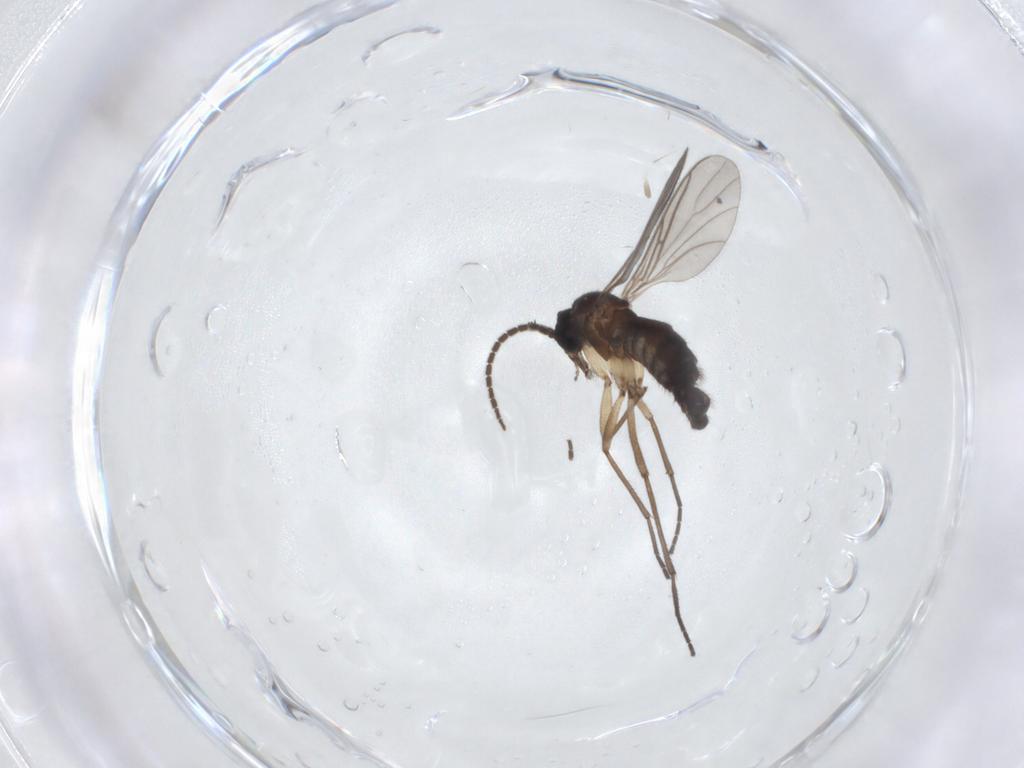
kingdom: Animalia
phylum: Arthropoda
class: Insecta
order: Diptera
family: Sciaridae
